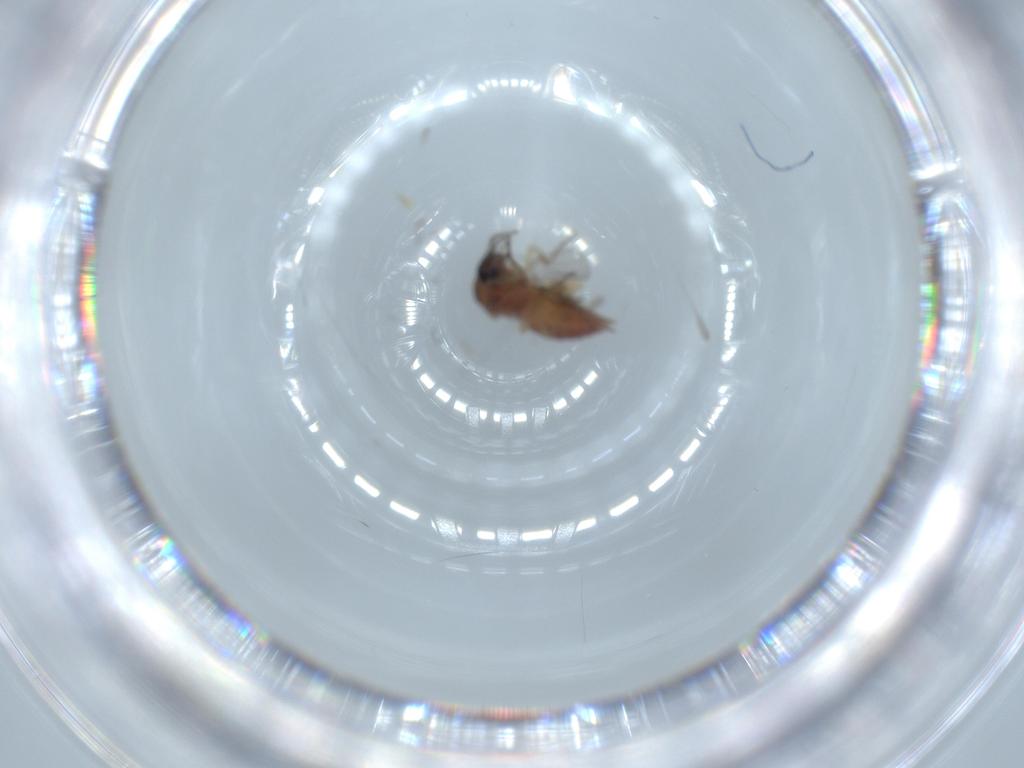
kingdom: Animalia
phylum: Arthropoda
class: Insecta
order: Diptera
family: Ceratopogonidae
